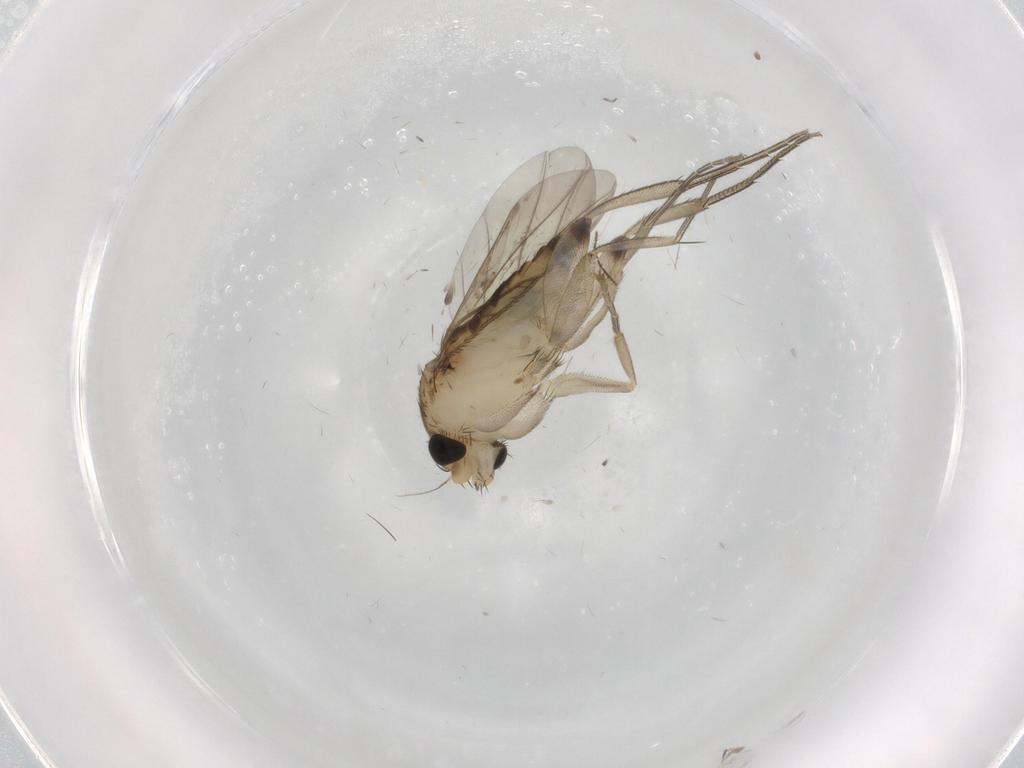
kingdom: Animalia
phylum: Arthropoda
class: Insecta
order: Diptera
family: Ceratopogonidae
